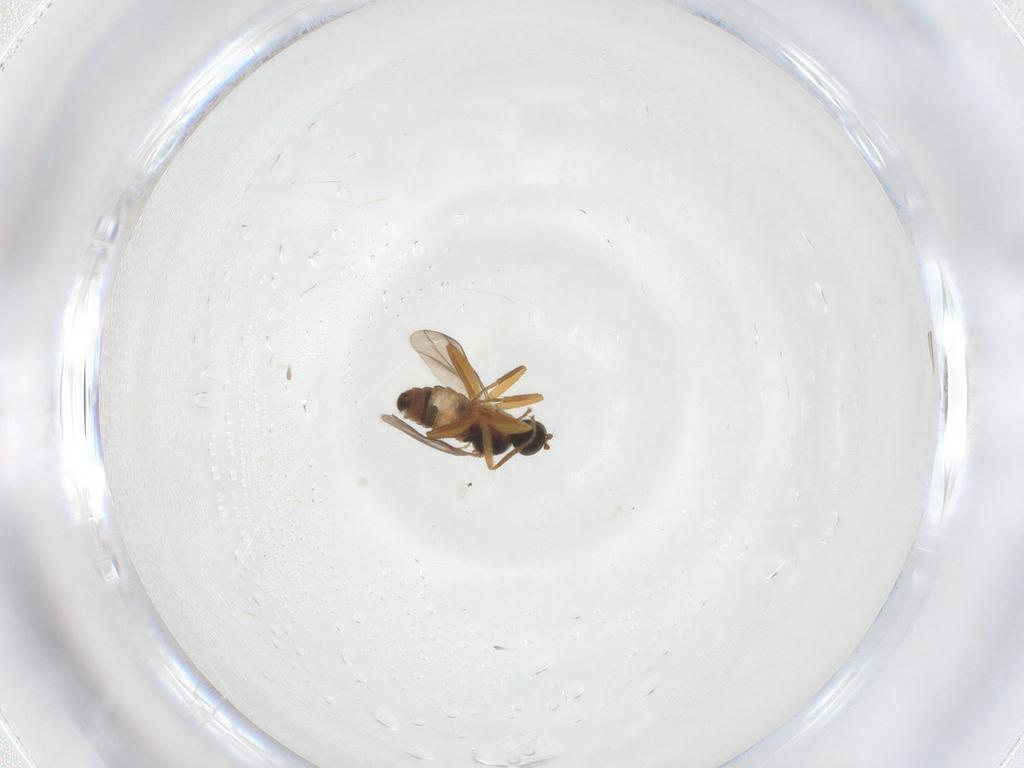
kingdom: Animalia
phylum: Arthropoda
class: Insecta
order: Diptera
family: Hybotidae
